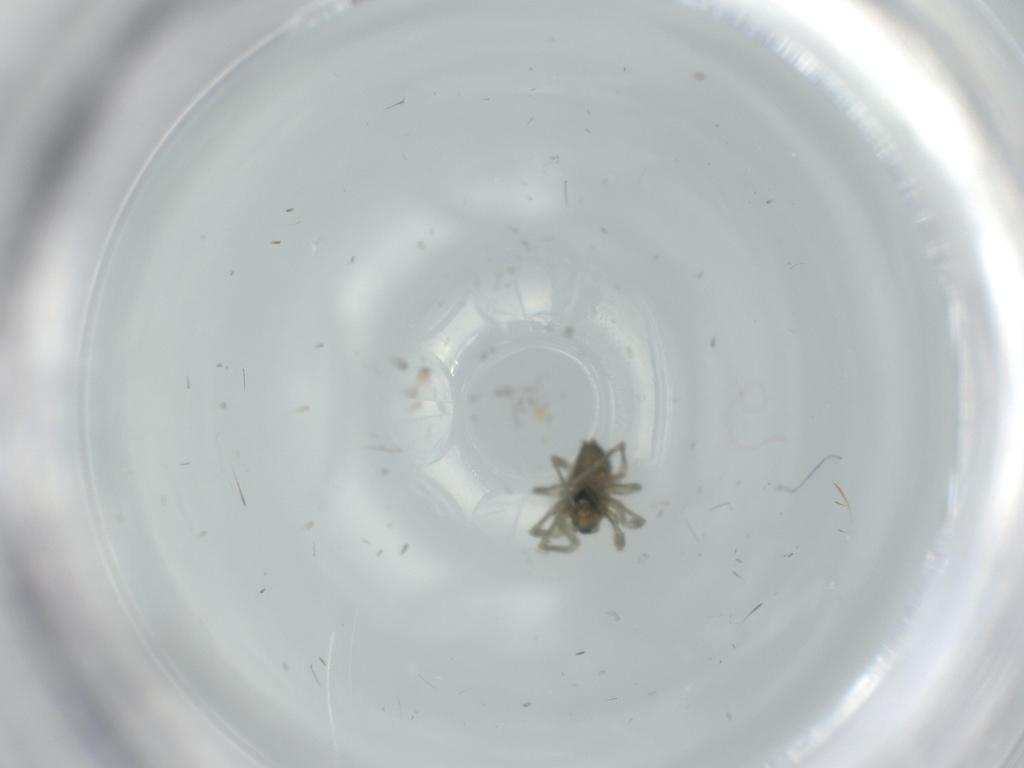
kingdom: Animalia
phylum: Arthropoda
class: Arachnida
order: Araneae
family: Linyphiidae
